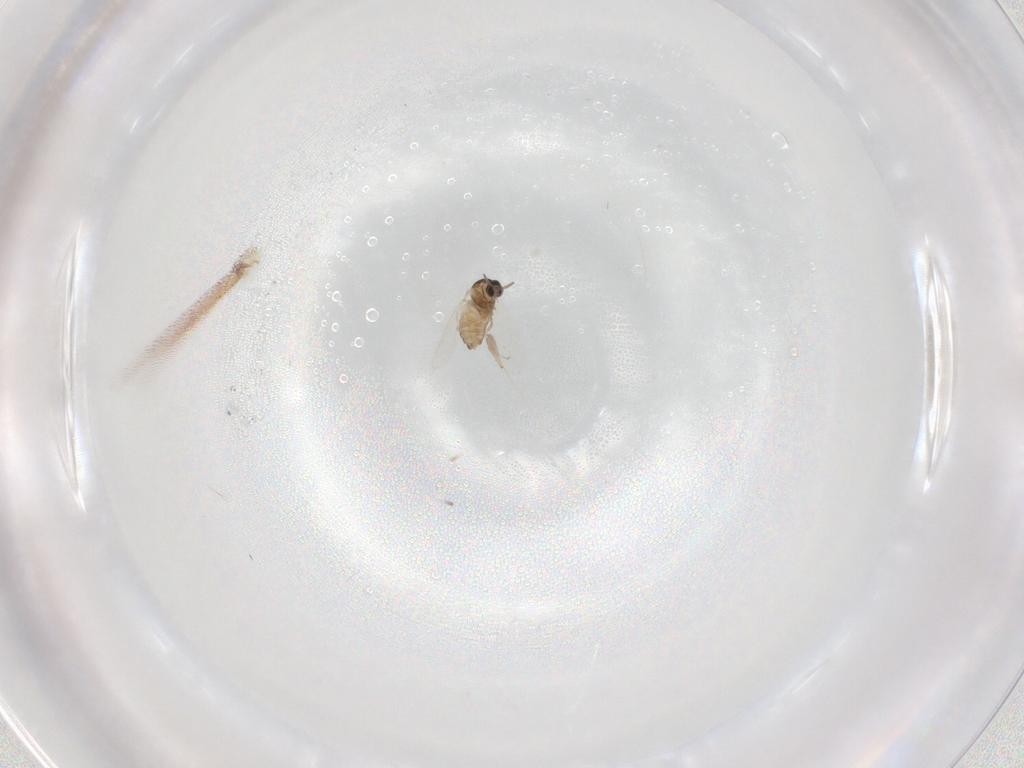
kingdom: Animalia
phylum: Arthropoda
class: Insecta
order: Diptera
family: Cecidomyiidae
